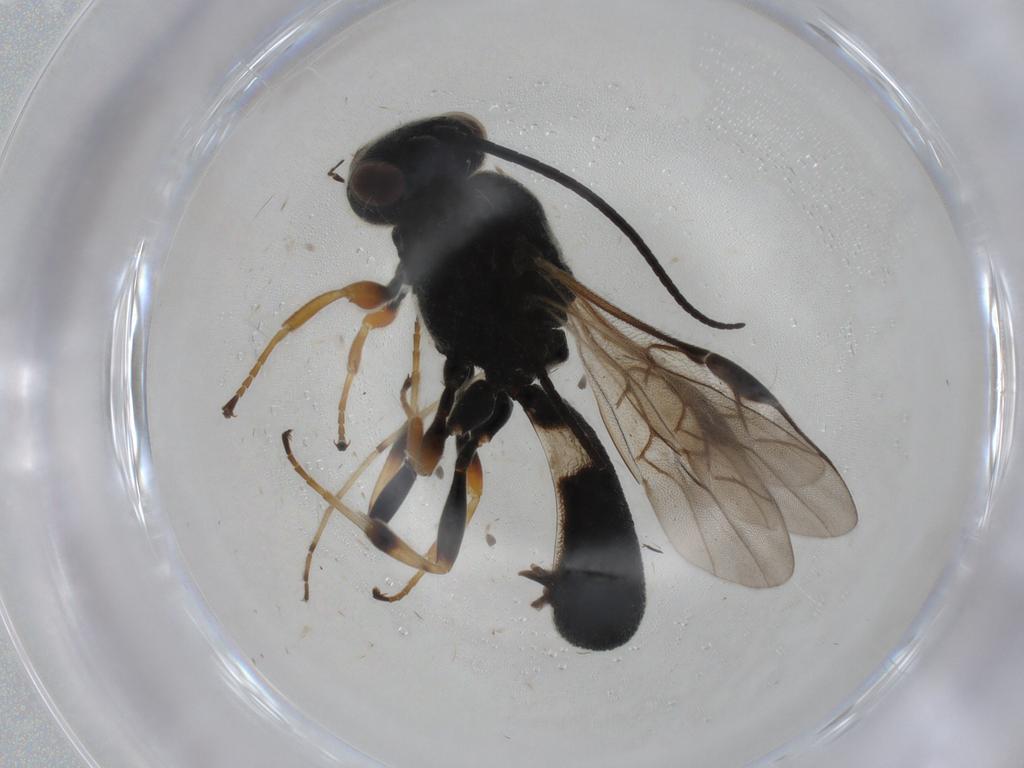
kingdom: Animalia
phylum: Arthropoda
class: Insecta
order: Hymenoptera
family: Braconidae
